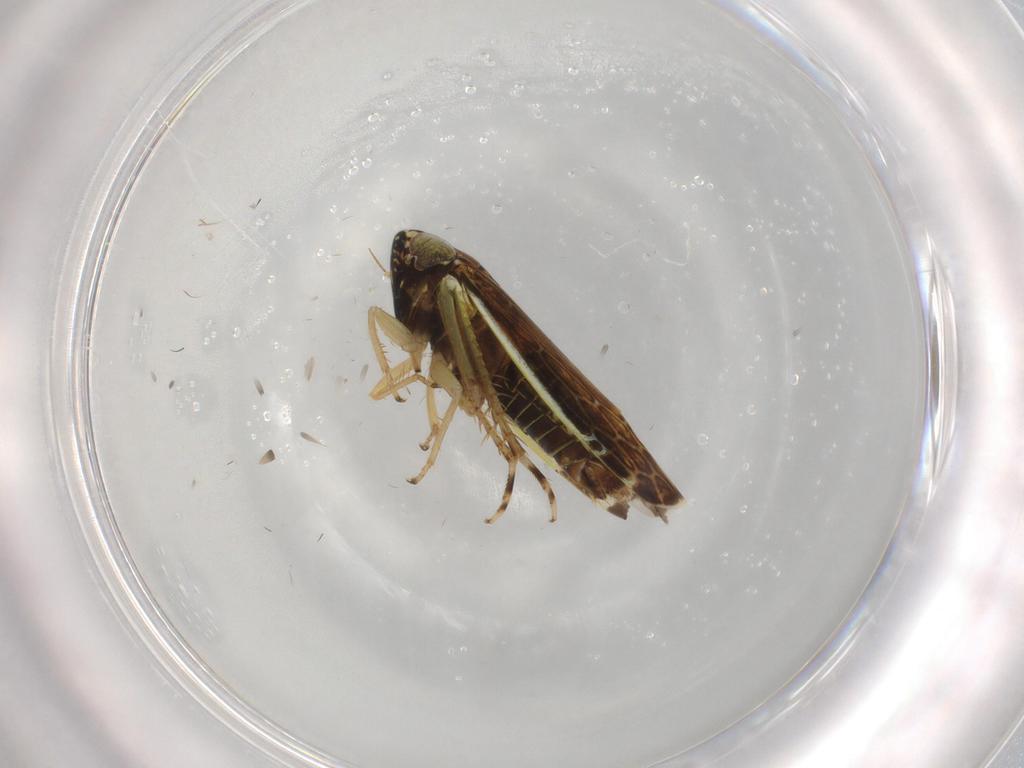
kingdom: Animalia
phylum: Arthropoda
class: Insecta
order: Hemiptera
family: Cicadellidae
